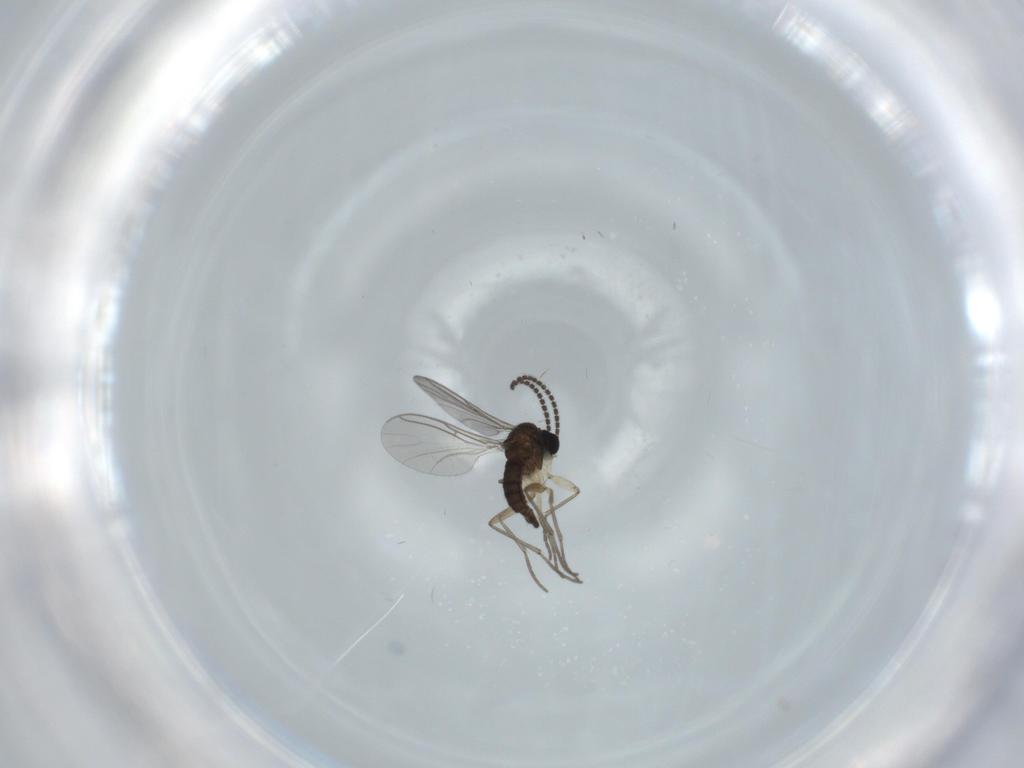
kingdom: Animalia
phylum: Arthropoda
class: Insecta
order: Diptera
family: Sciaridae
